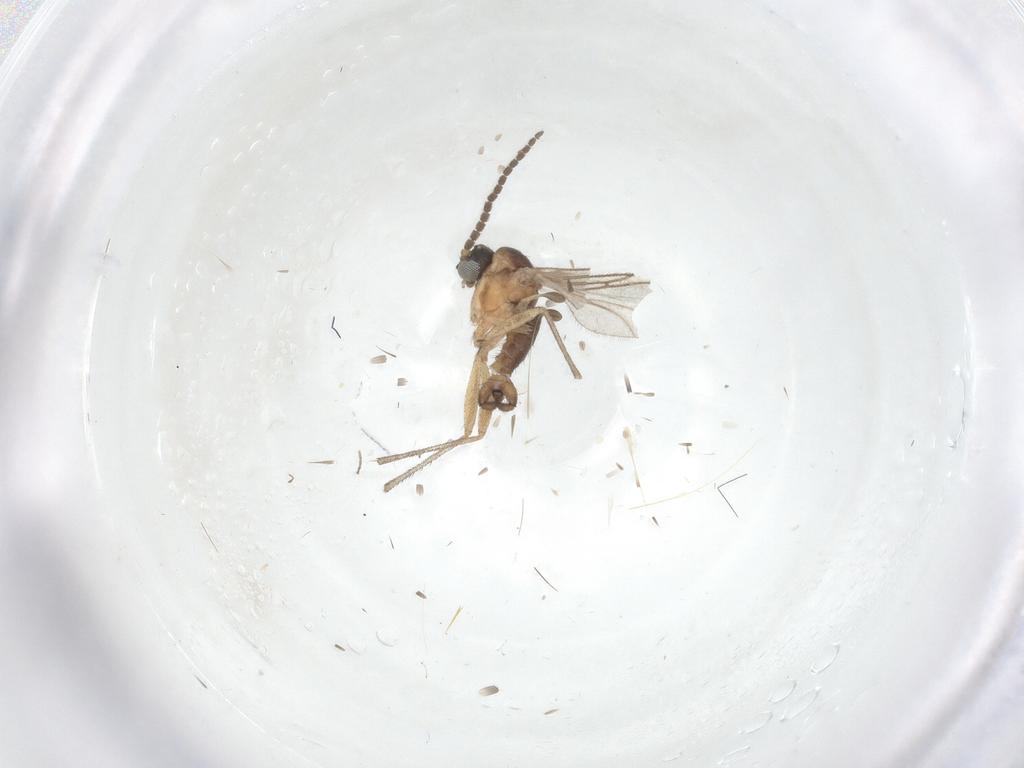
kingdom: Animalia
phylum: Arthropoda
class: Insecta
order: Diptera
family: Sciaridae
